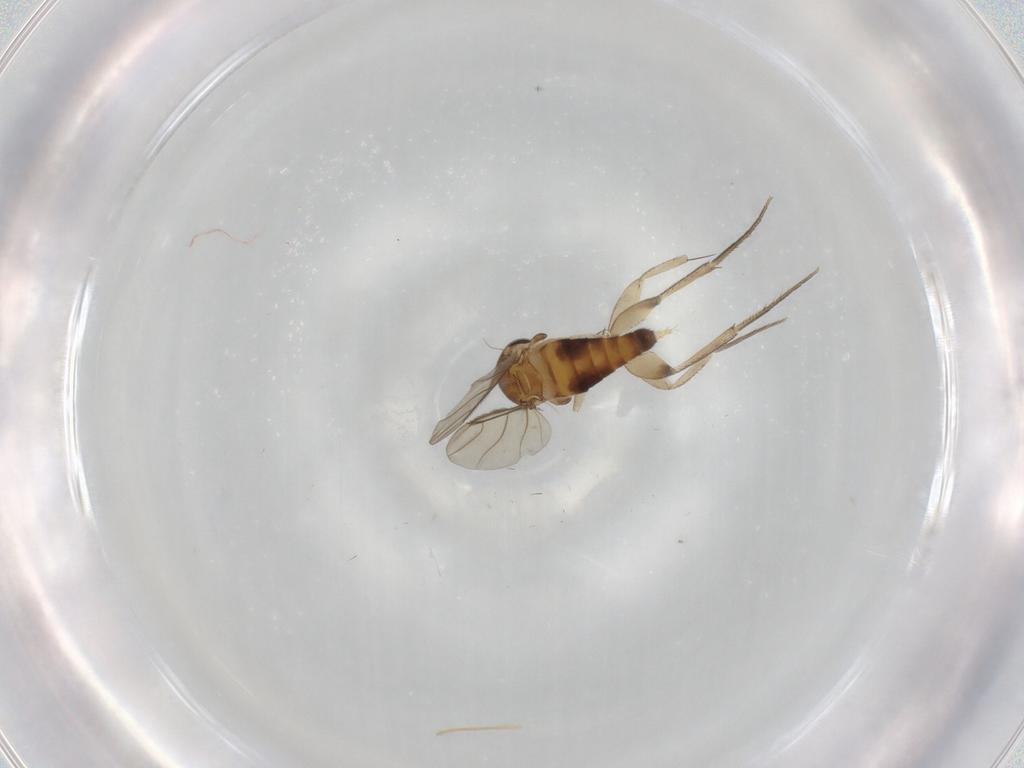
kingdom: Animalia
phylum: Arthropoda
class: Insecta
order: Diptera
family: Phoridae
